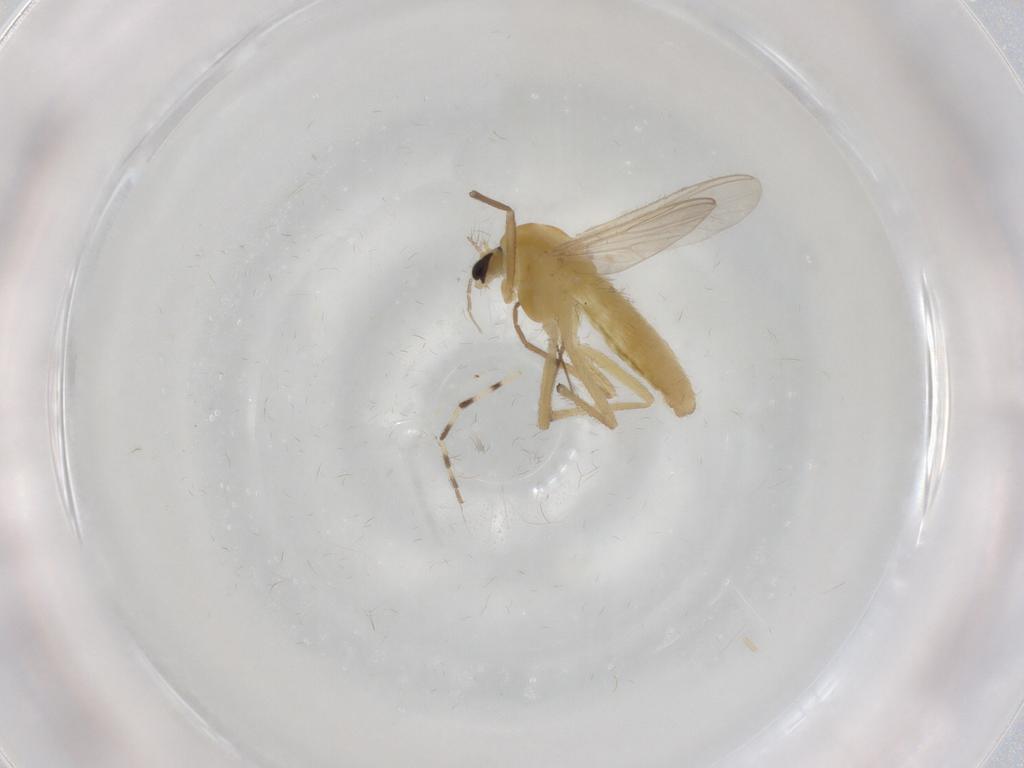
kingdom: Animalia
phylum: Arthropoda
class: Insecta
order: Diptera
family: Chironomidae
